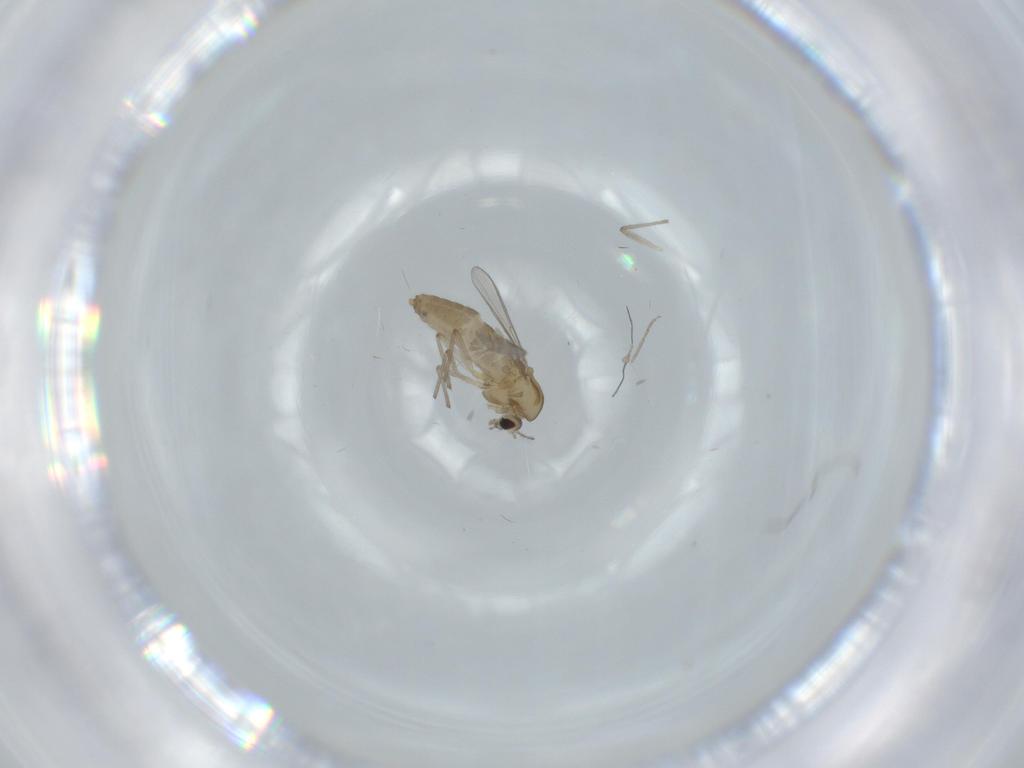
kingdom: Animalia
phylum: Arthropoda
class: Insecta
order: Diptera
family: Chironomidae
